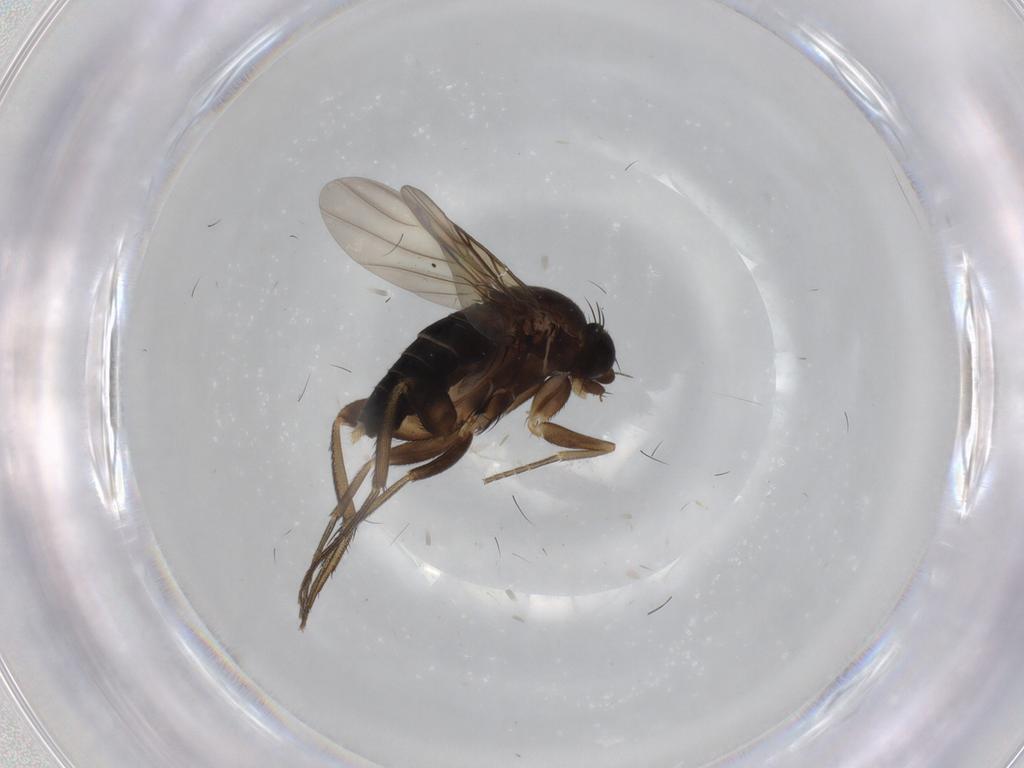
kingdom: Animalia
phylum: Arthropoda
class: Insecta
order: Diptera
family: Phoridae
